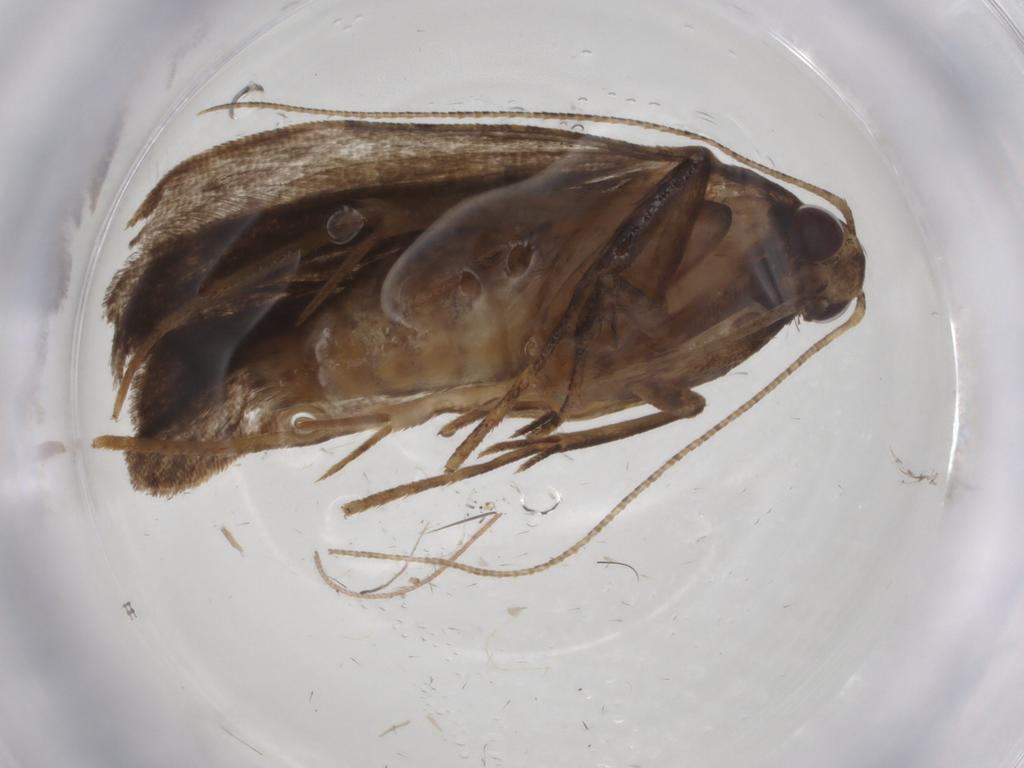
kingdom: Animalia
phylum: Arthropoda
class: Insecta
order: Lepidoptera
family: Gelechiidae
